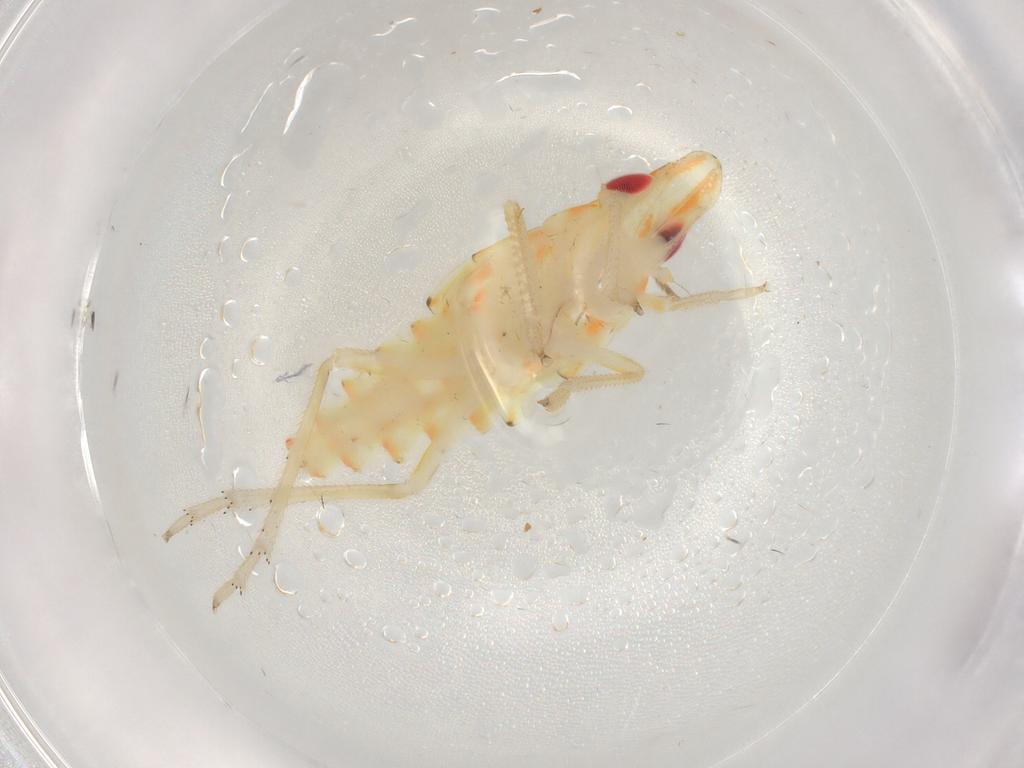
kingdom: Animalia
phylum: Arthropoda
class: Insecta
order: Hemiptera
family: Tropiduchidae
